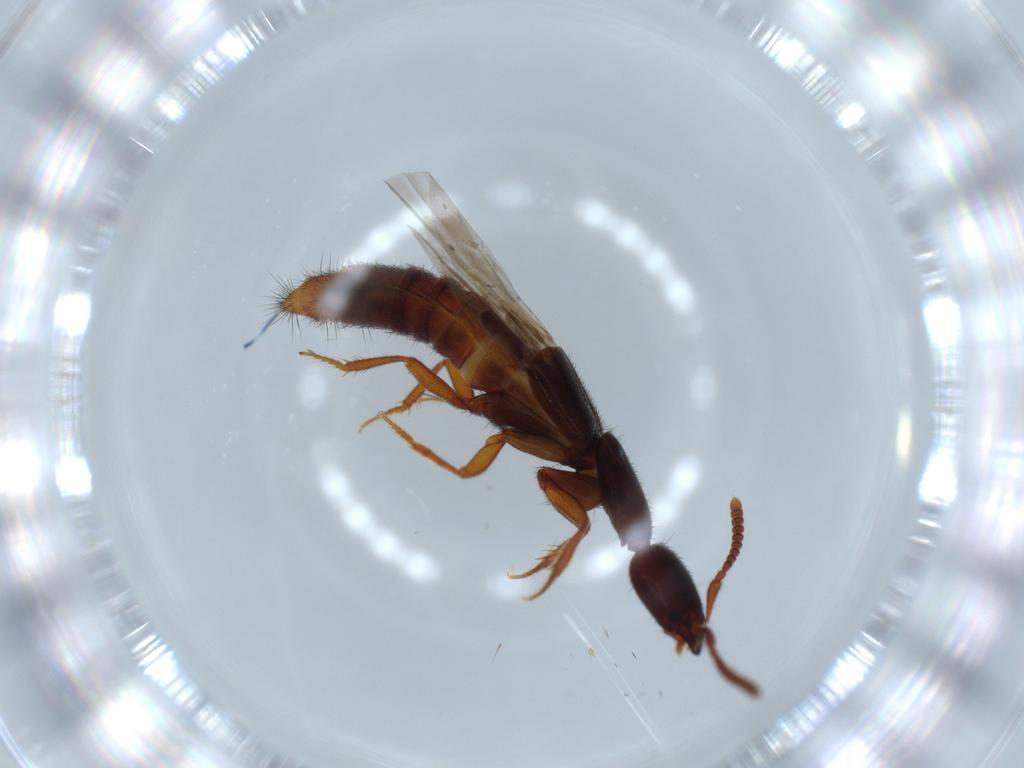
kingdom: Animalia
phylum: Arthropoda
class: Insecta
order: Coleoptera
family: Staphylinidae
